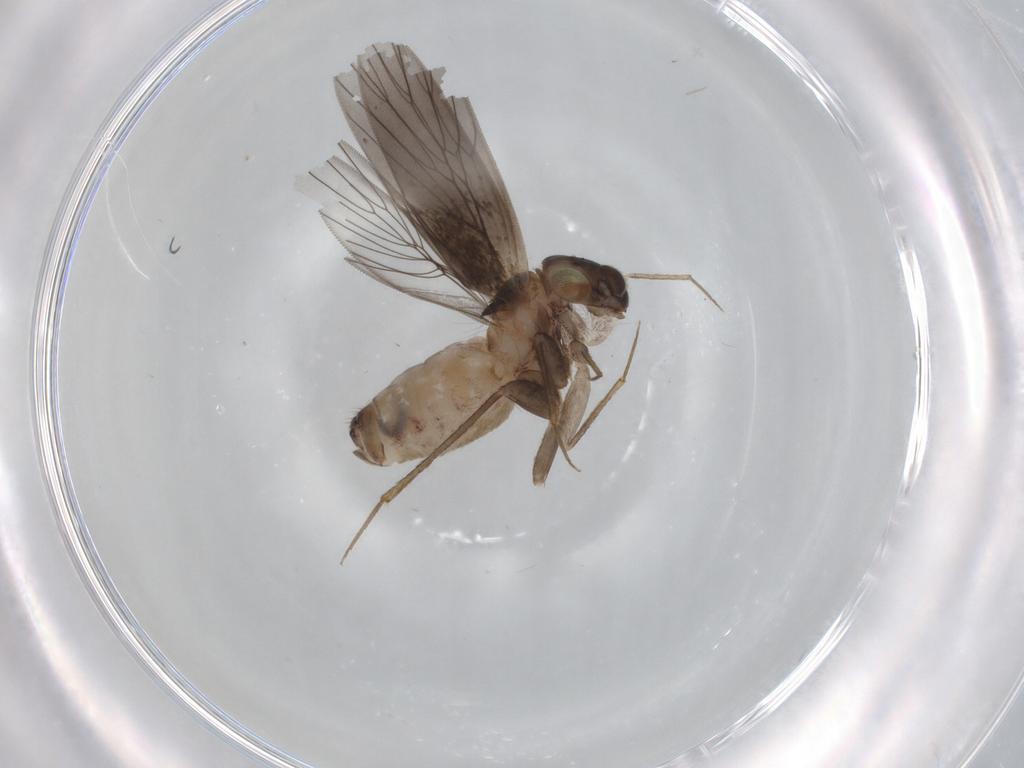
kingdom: Animalia
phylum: Arthropoda
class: Insecta
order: Psocodea
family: Lepidopsocidae
